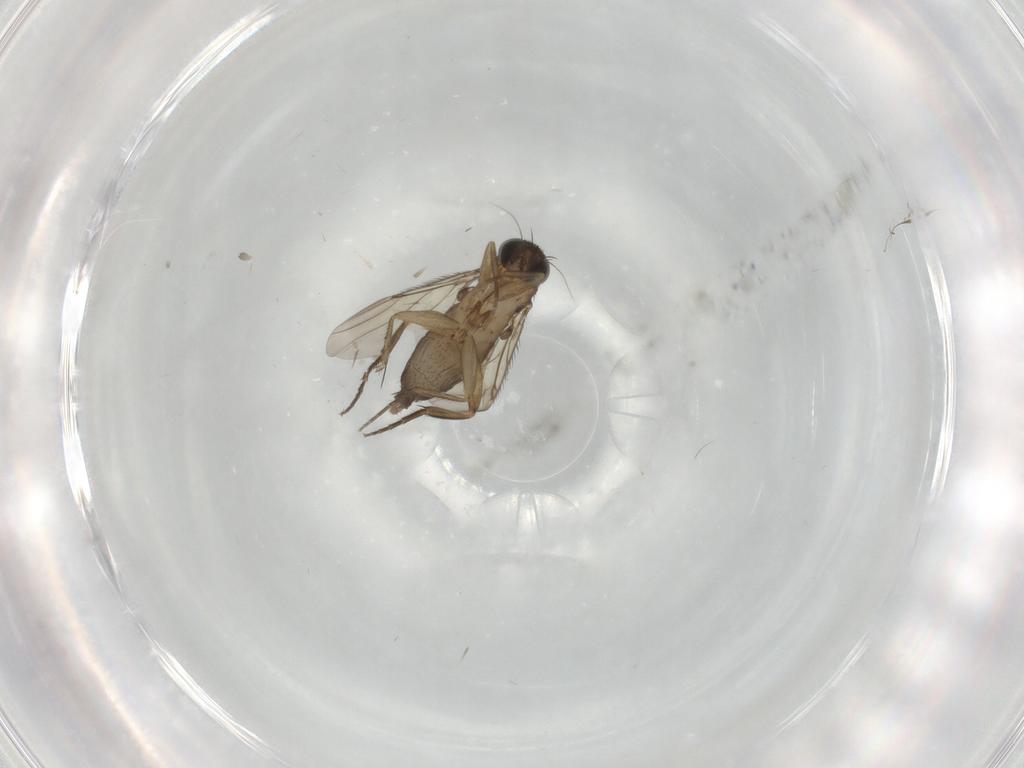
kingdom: Animalia
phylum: Arthropoda
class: Insecta
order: Diptera
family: Phoridae
